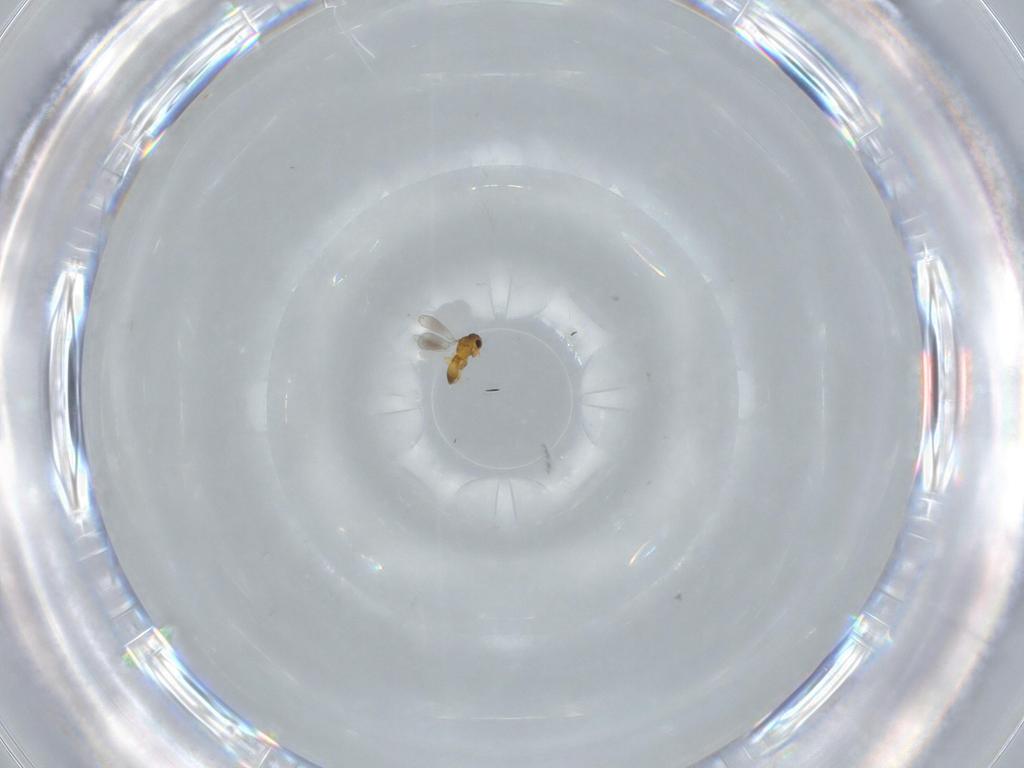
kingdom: Animalia
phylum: Arthropoda
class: Insecta
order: Hymenoptera
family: Platygastridae
